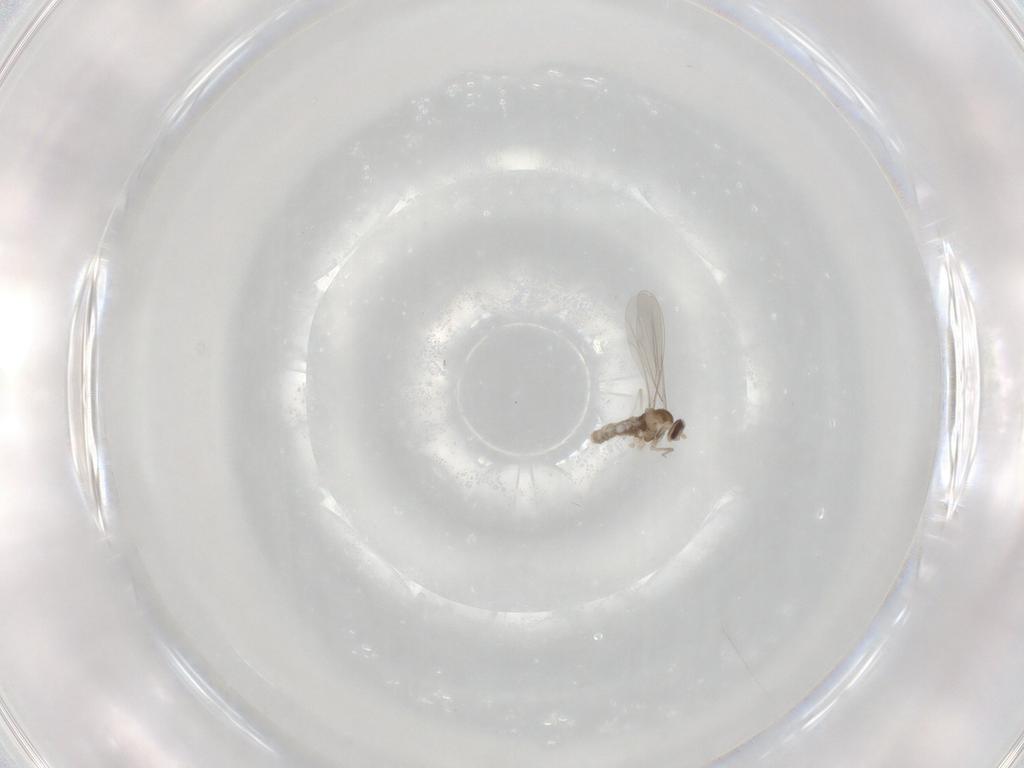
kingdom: Animalia
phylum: Arthropoda
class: Insecta
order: Diptera
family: Cecidomyiidae
